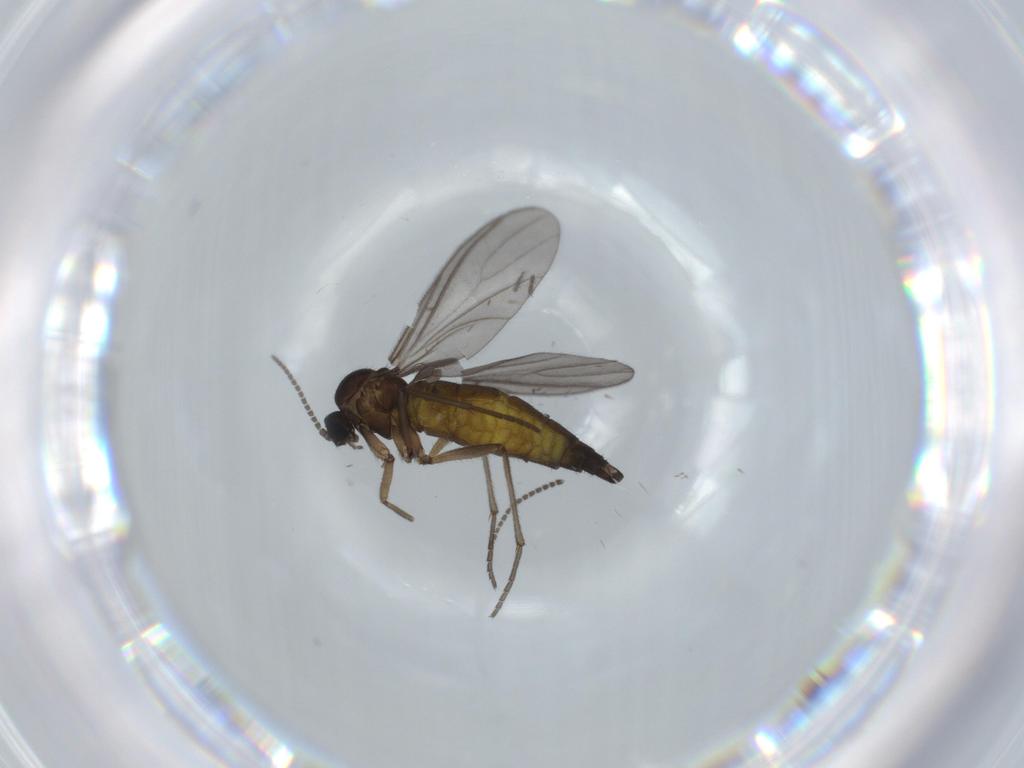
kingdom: Animalia
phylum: Arthropoda
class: Insecta
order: Diptera
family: Sciaridae
